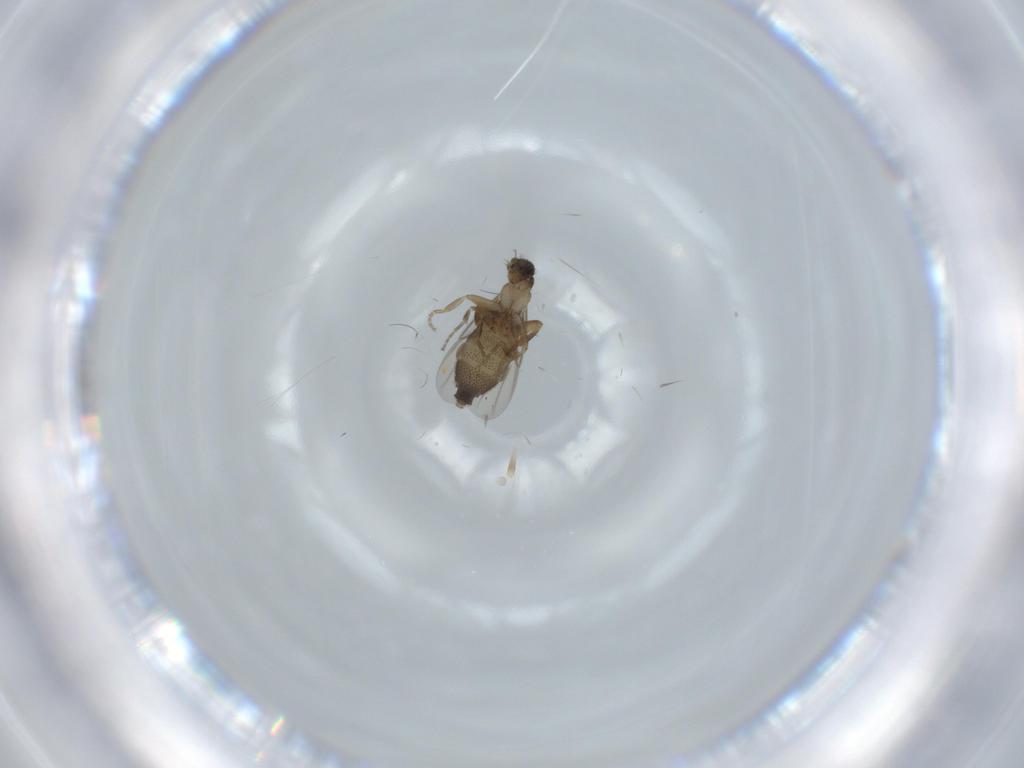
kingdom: Animalia
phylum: Arthropoda
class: Insecta
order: Diptera
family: Phoridae
